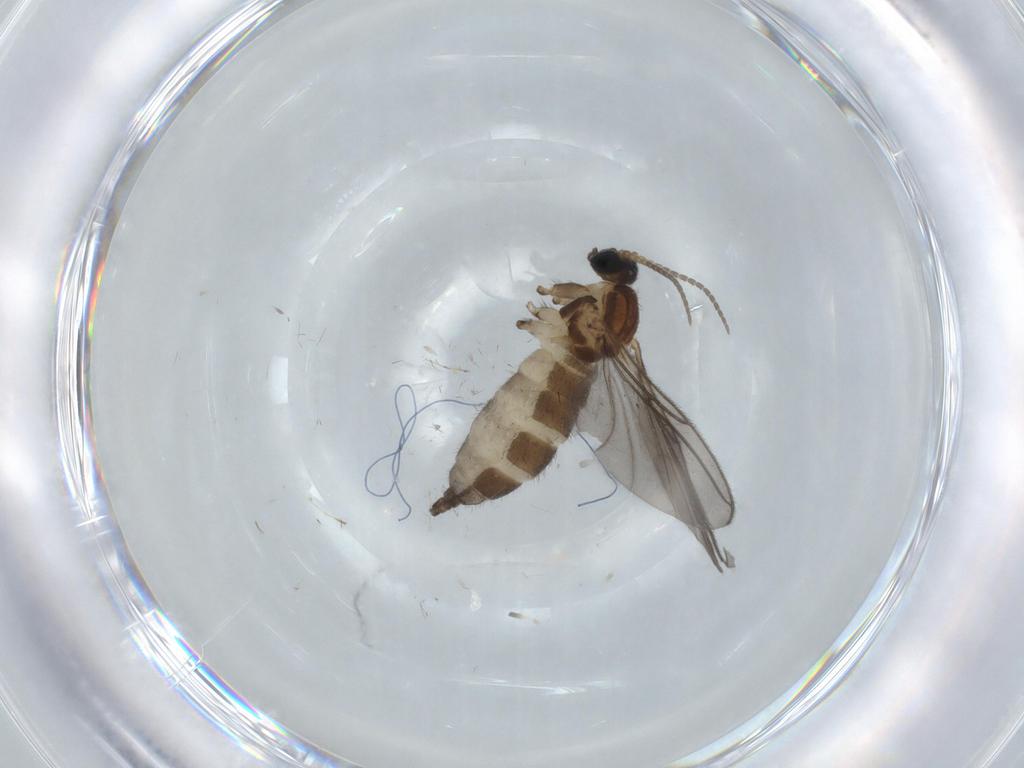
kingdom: Animalia
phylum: Arthropoda
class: Insecta
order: Diptera
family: Sciaridae
